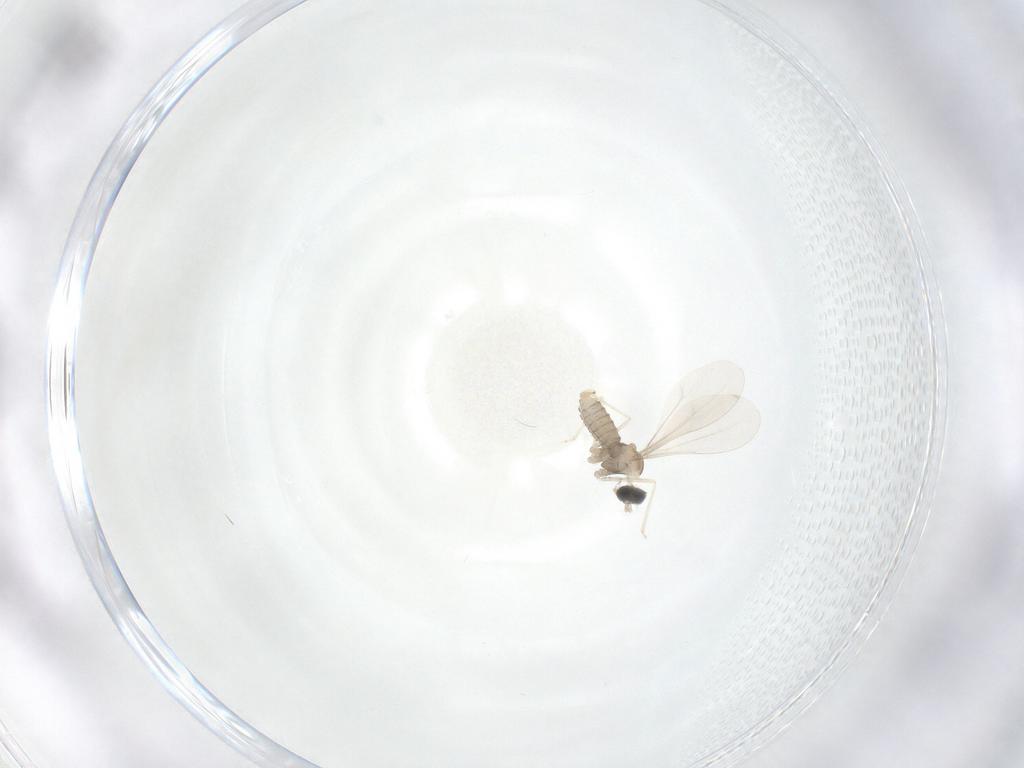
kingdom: Animalia
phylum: Arthropoda
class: Insecta
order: Diptera
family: Cecidomyiidae
